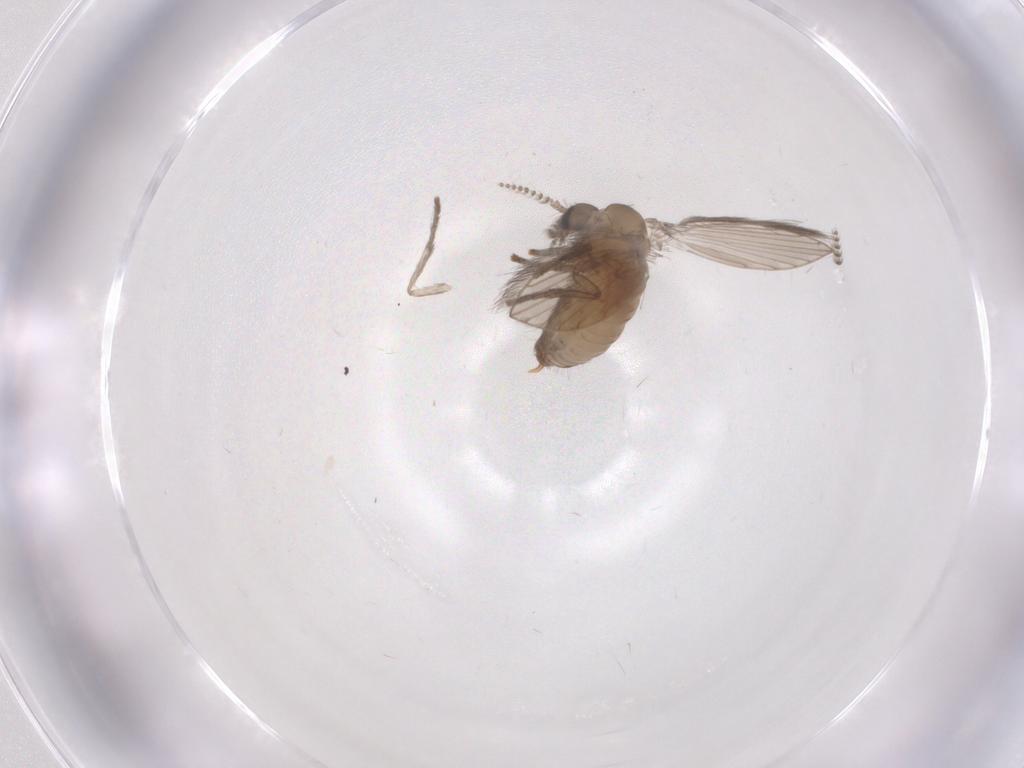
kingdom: Animalia
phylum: Arthropoda
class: Insecta
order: Diptera
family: Psychodidae
